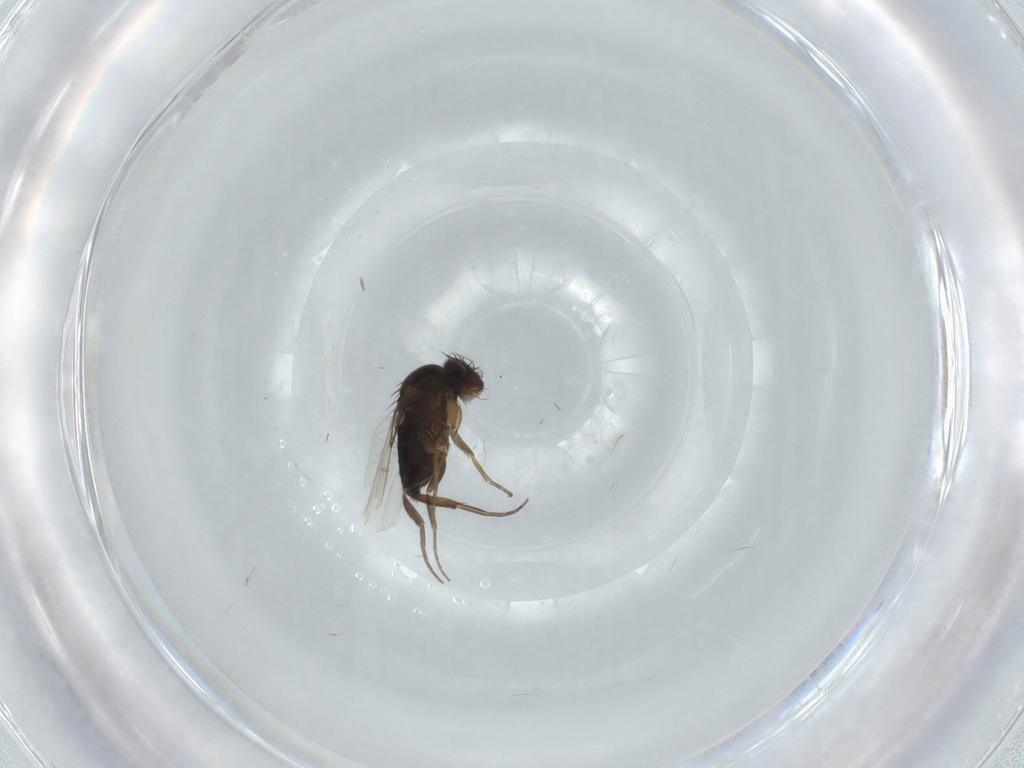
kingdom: Animalia
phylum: Arthropoda
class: Insecta
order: Diptera
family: Phoridae
